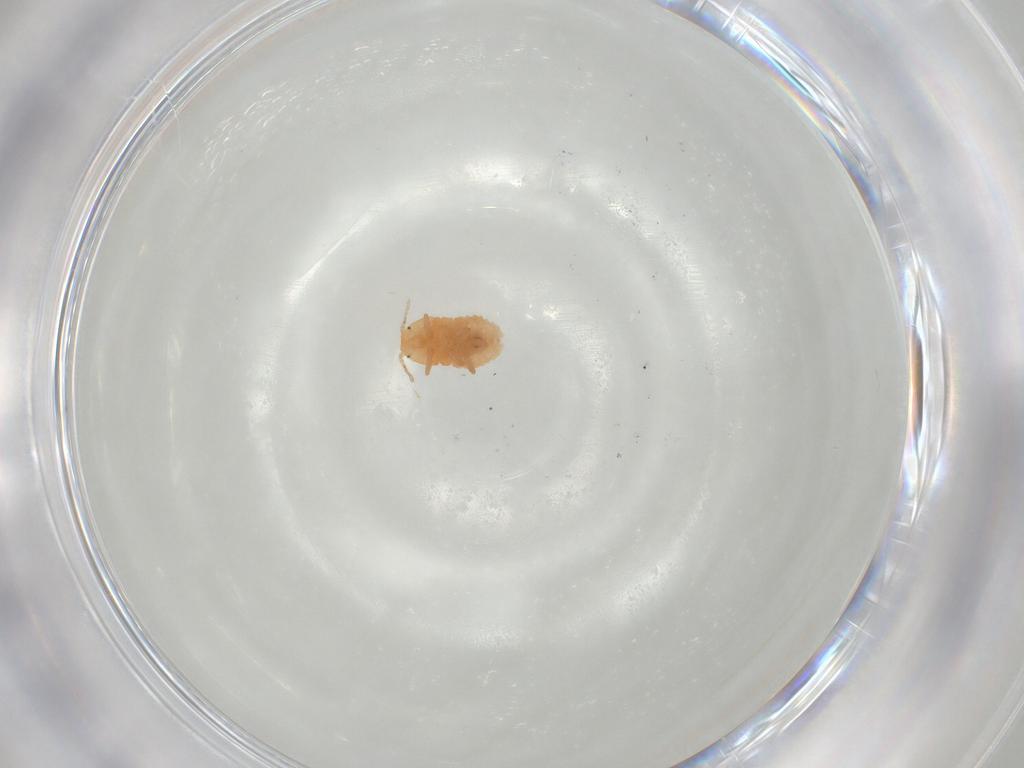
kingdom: Animalia
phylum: Arthropoda
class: Insecta
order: Hemiptera
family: Pseudococcidae
